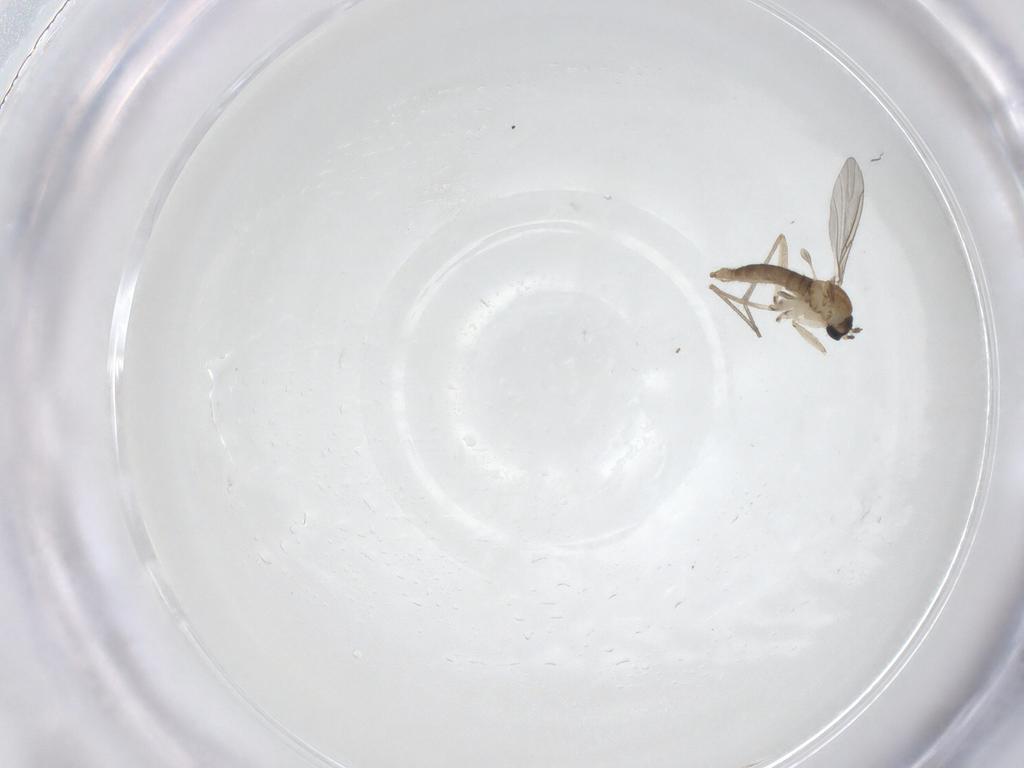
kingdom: Animalia
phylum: Arthropoda
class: Insecta
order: Diptera
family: Sciaridae
